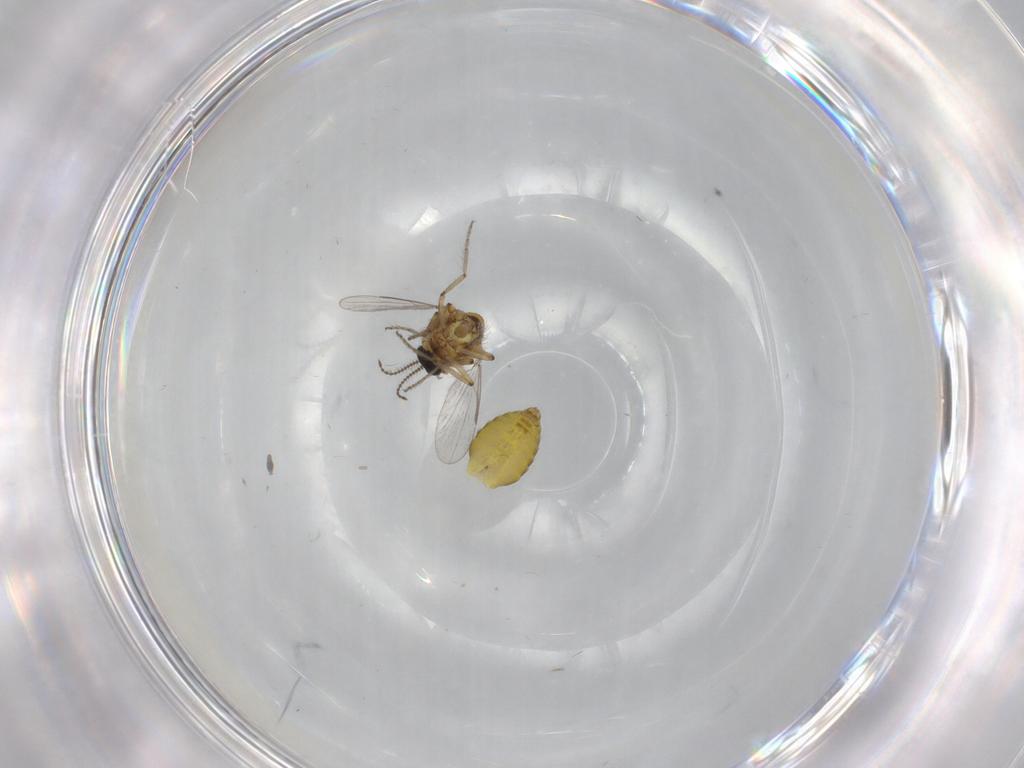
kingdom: Animalia
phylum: Arthropoda
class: Insecta
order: Diptera
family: Ceratopogonidae
